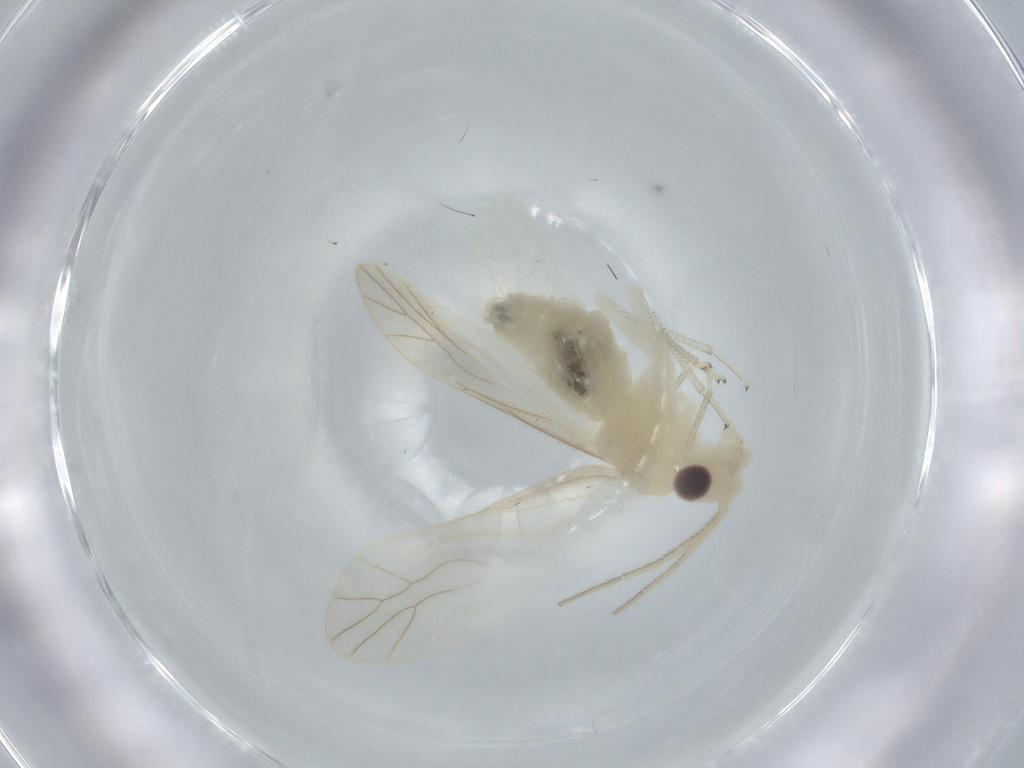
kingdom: Animalia
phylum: Arthropoda
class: Insecta
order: Psocodea
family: Caeciliusidae
